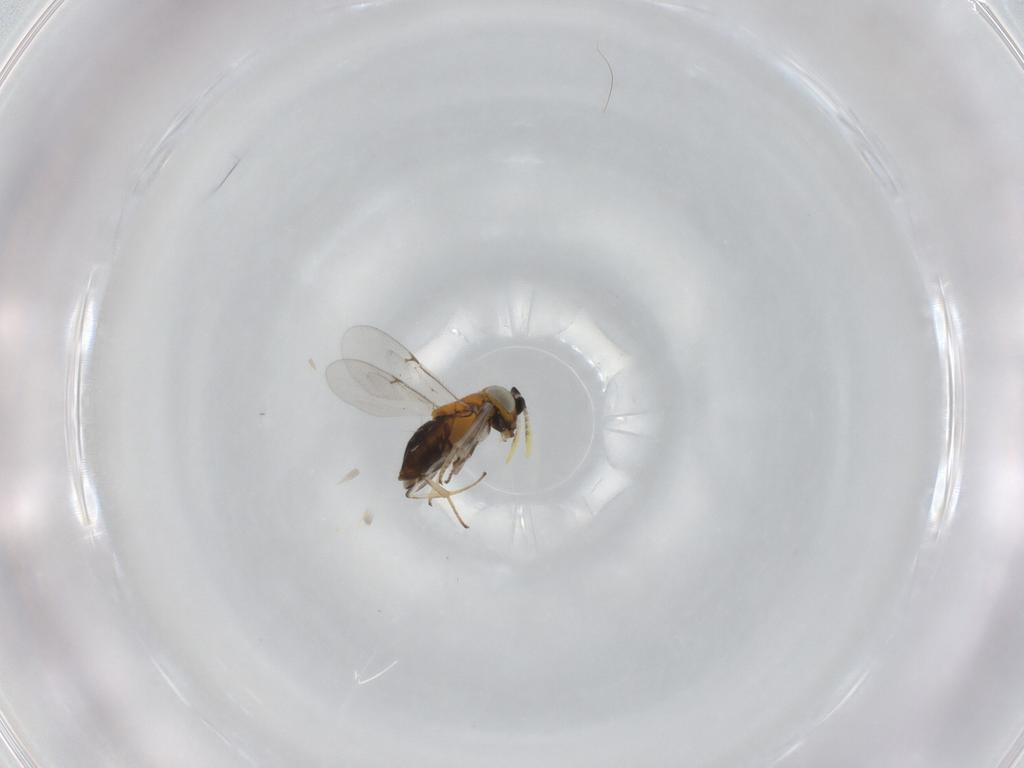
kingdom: Animalia
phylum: Arthropoda
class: Insecta
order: Hymenoptera
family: Encyrtidae
